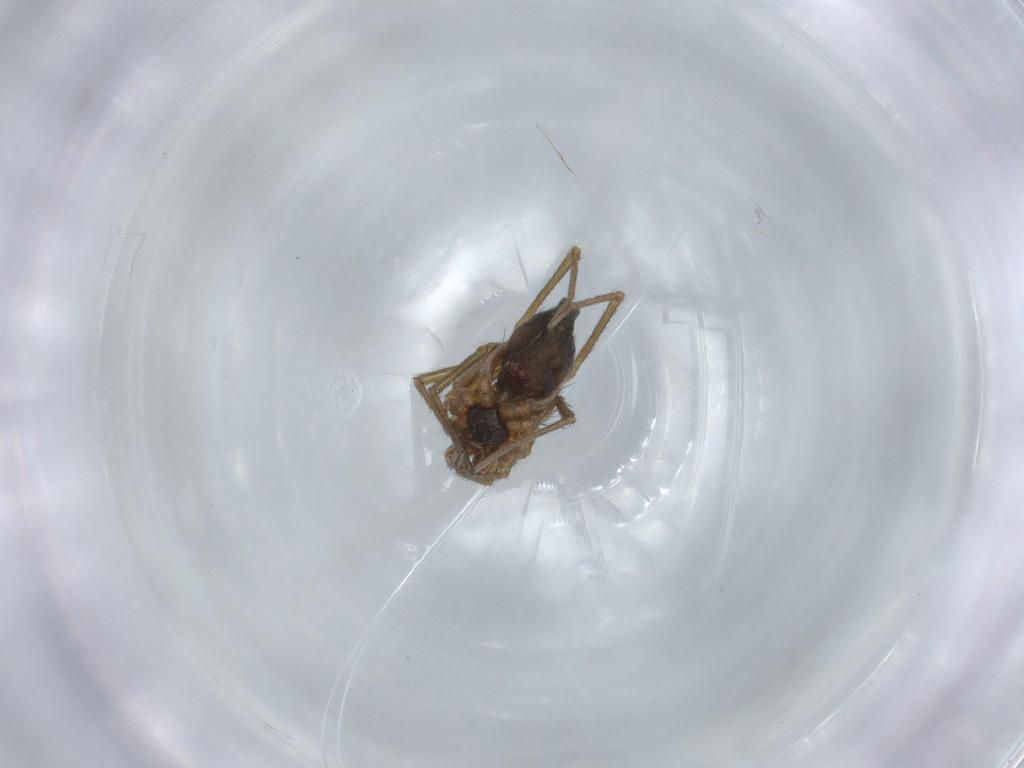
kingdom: Animalia
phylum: Arthropoda
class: Arachnida
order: Araneae
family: Linyphiidae
